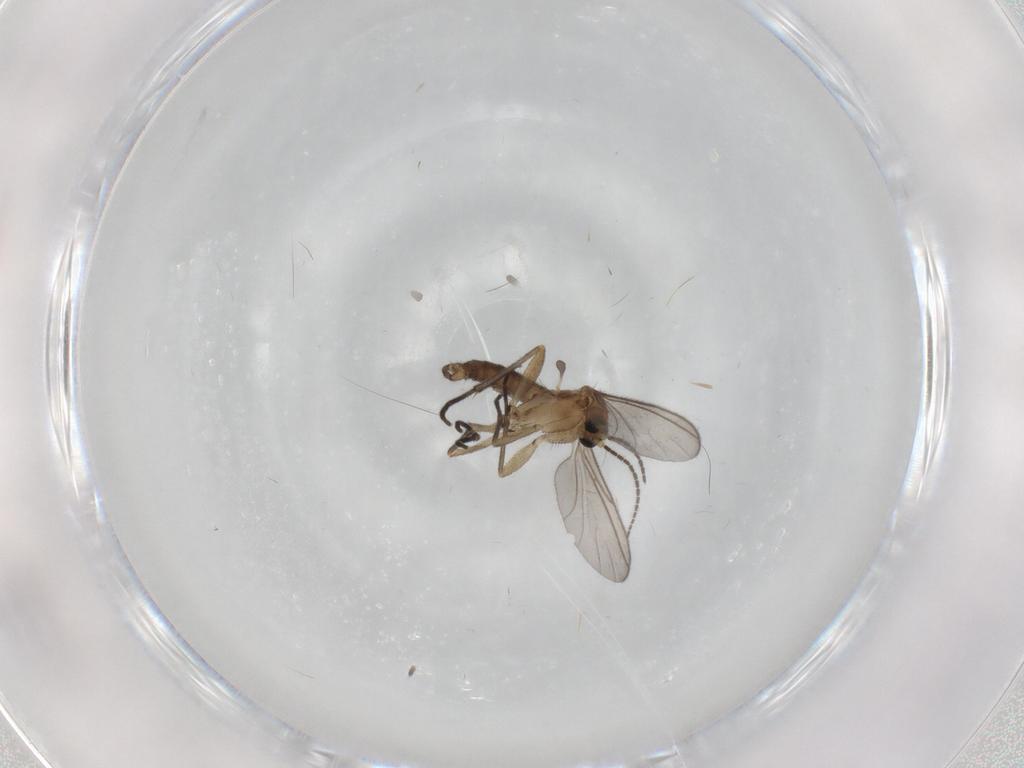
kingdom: Animalia
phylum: Arthropoda
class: Insecta
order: Diptera
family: Sciaridae
